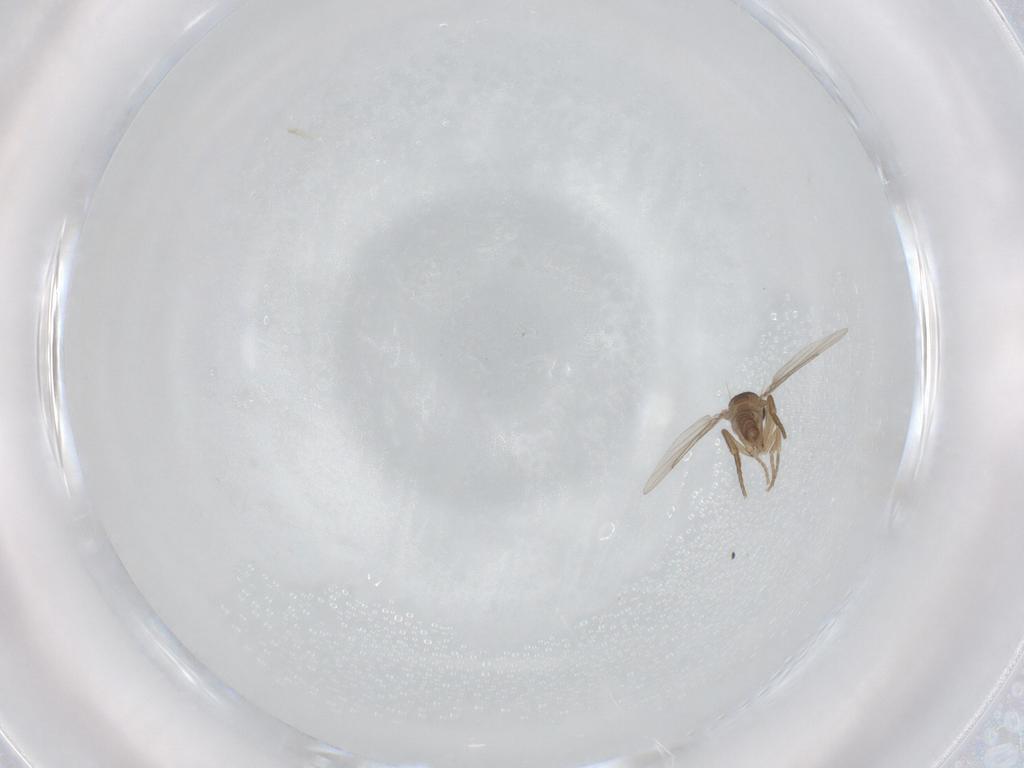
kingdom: Animalia
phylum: Arthropoda
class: Insecta
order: Diptera
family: Phoridae
